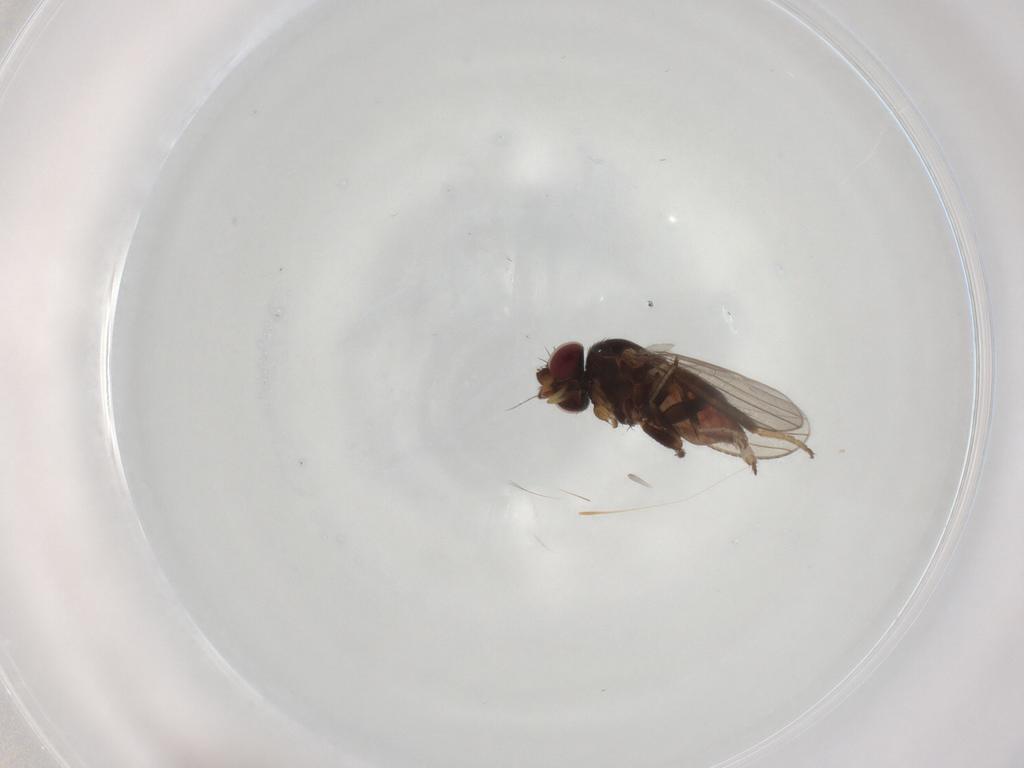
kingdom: Animalia
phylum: Arthropoda
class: Insecta
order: Diptera
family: Milichiidae
